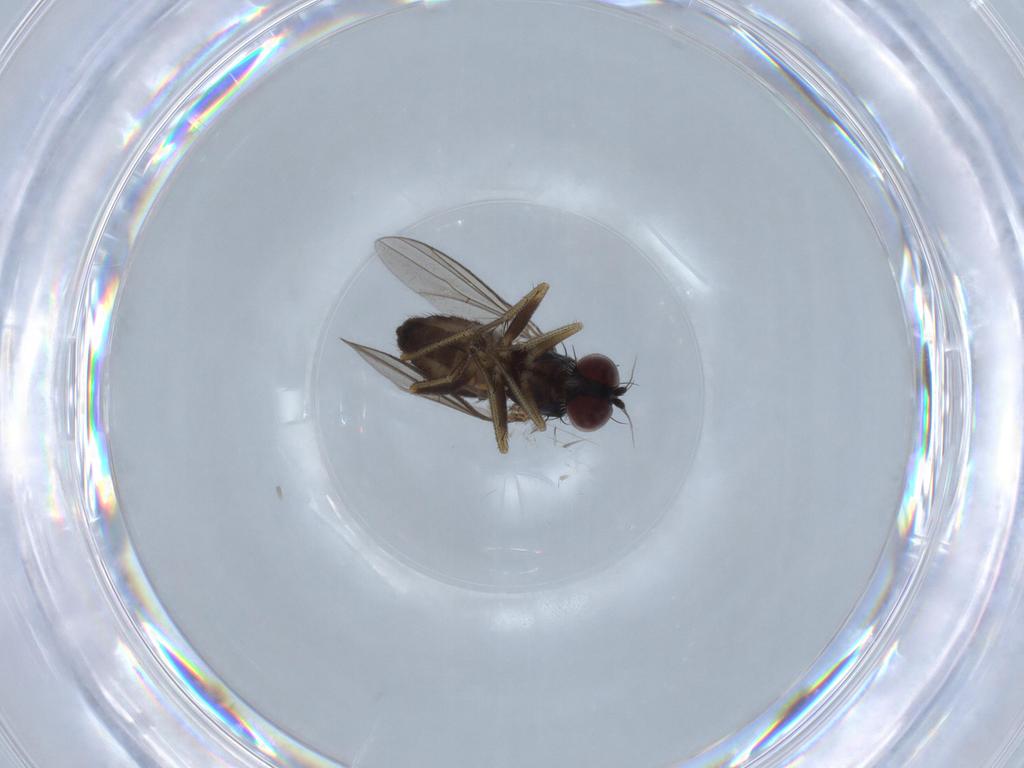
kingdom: Animalia
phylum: Arthropoda
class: Insecta
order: Diptera
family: Dolichopodidae
